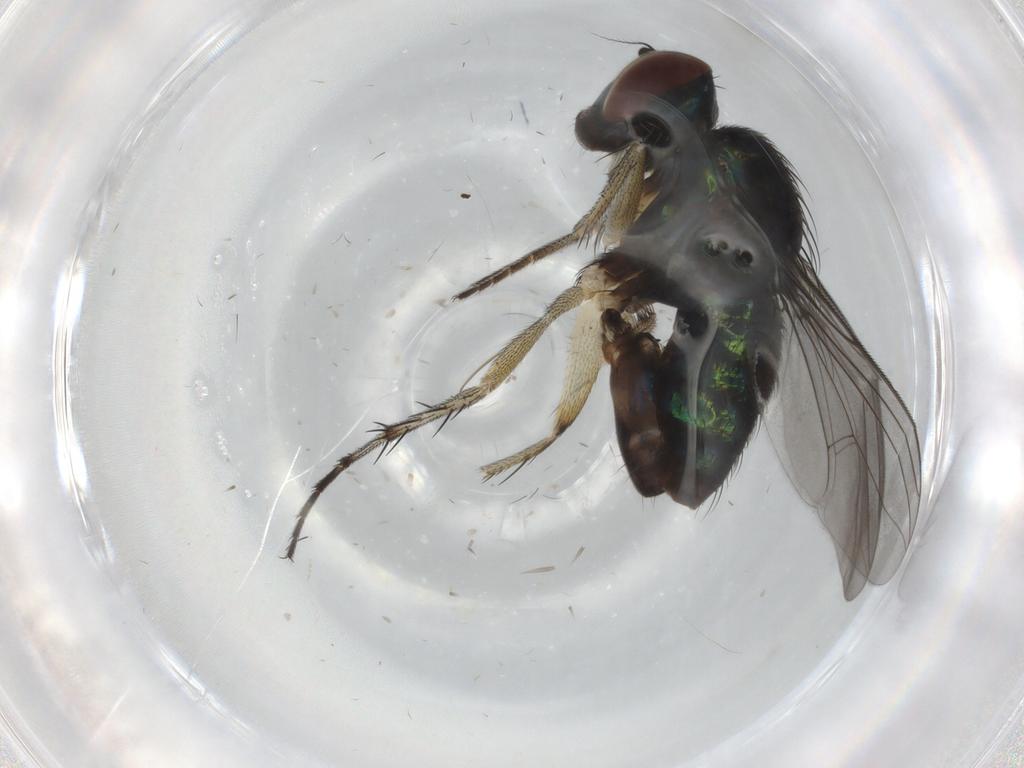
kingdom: Animalia
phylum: Arthropoda
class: Insecta
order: Diptera
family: Dolichopodidae
